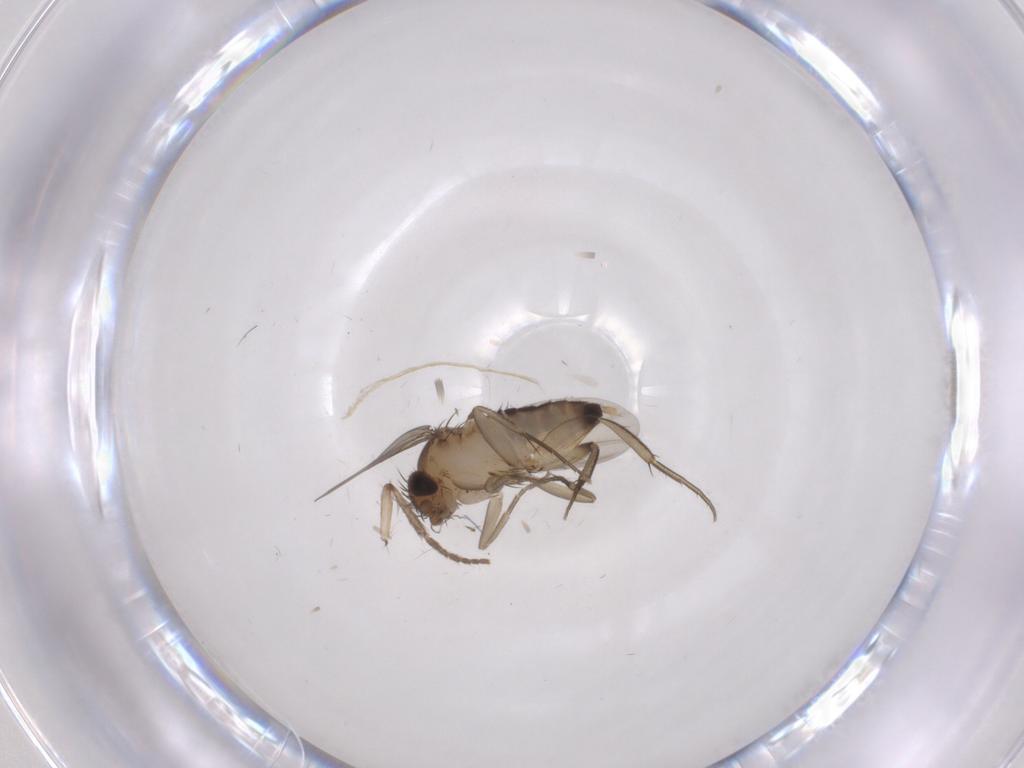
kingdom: Animalia
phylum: Arthropoda
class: Insecta
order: Diptera
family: Psychodidae
